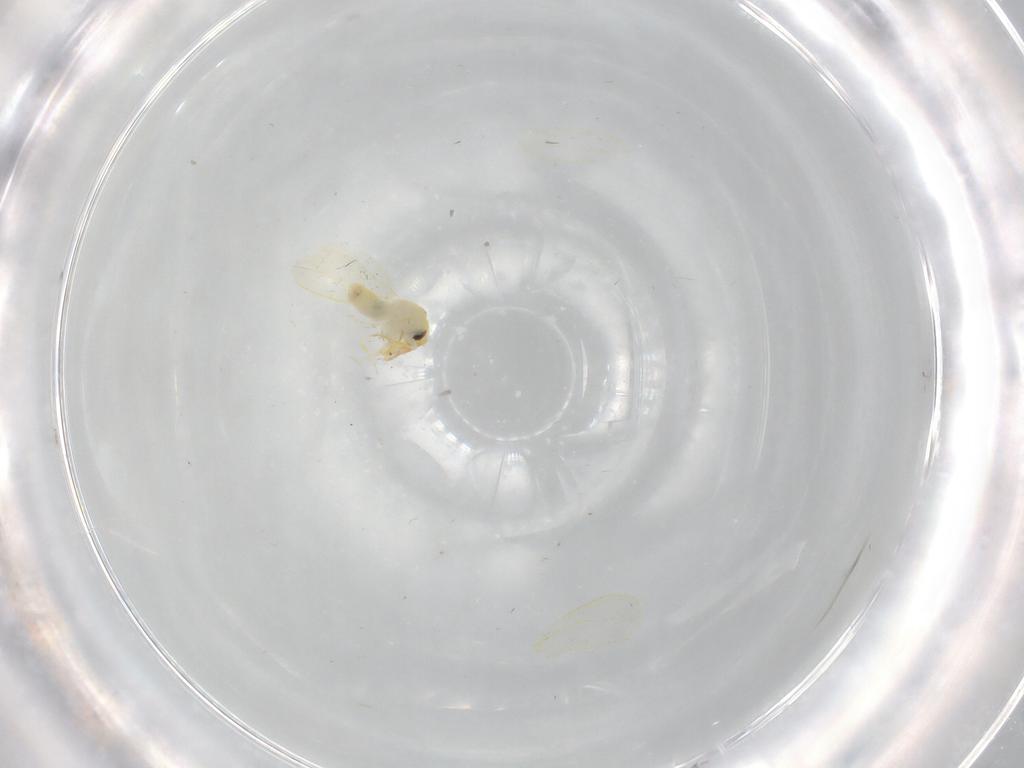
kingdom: Animalia
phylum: Arthropoda
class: Insecta
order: Hemiptera
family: Aleyrodidae
